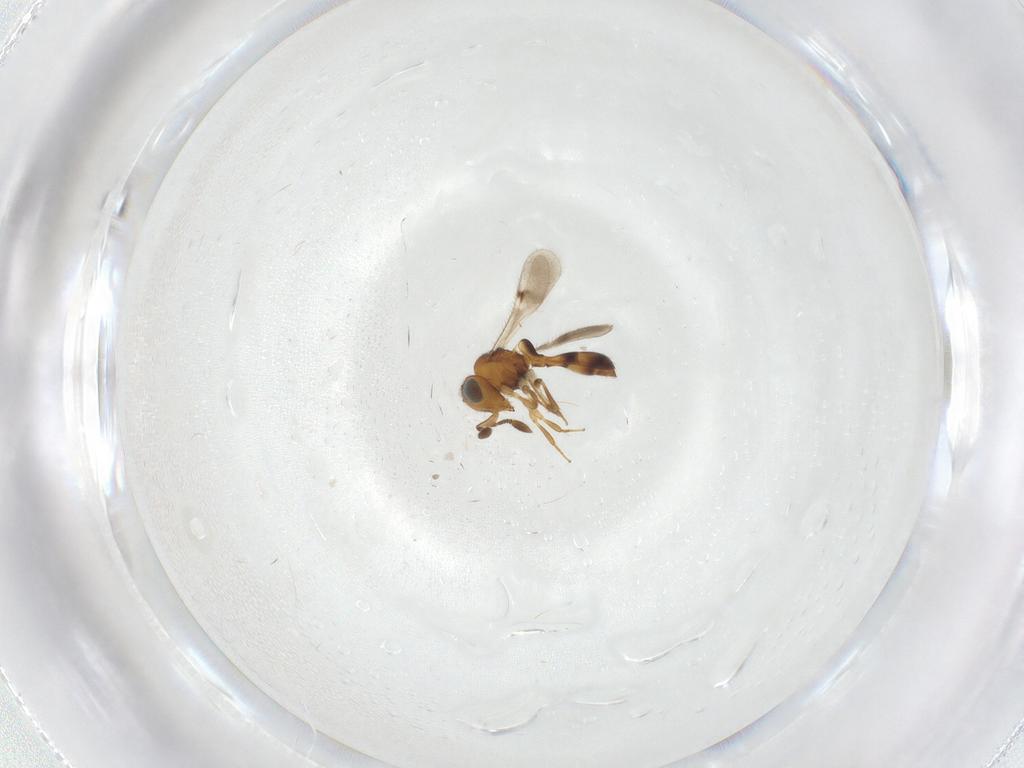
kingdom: Animalia
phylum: Arthropoda
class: Insecta
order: Hymenoptera
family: Scelionidae
